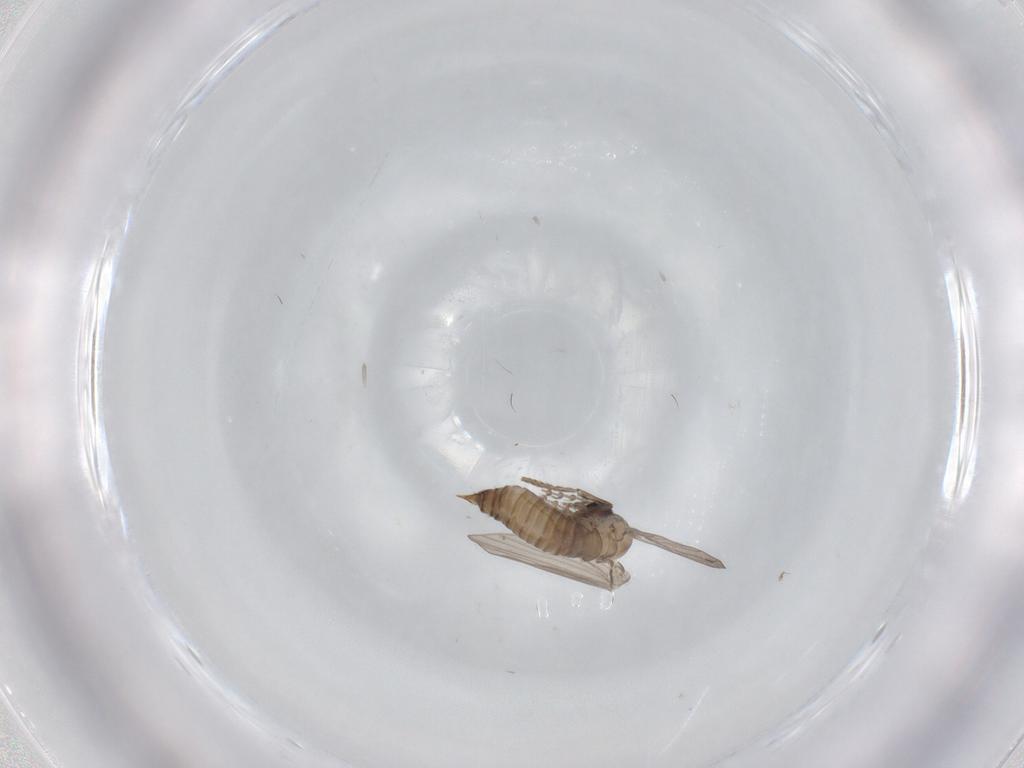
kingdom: Animalia
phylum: Arthropoda
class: Insecta
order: Diptera
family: Psychodidae
